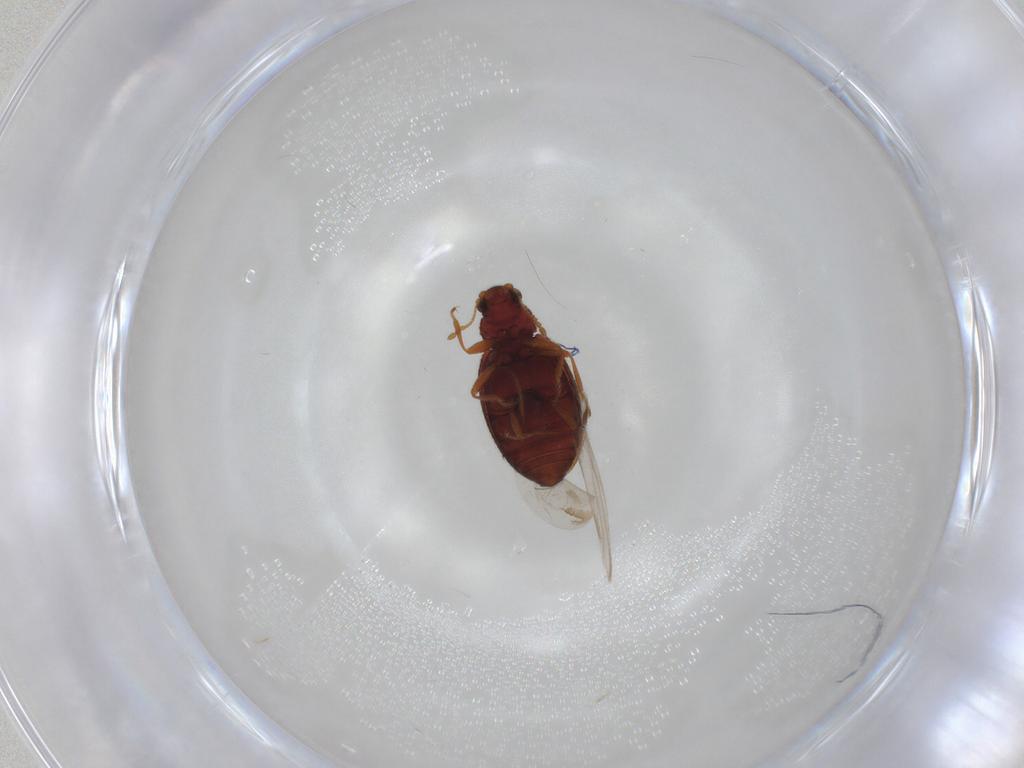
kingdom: Animalia
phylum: Arthropoda
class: Insecta
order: Coleoptera
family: Latridiidae
